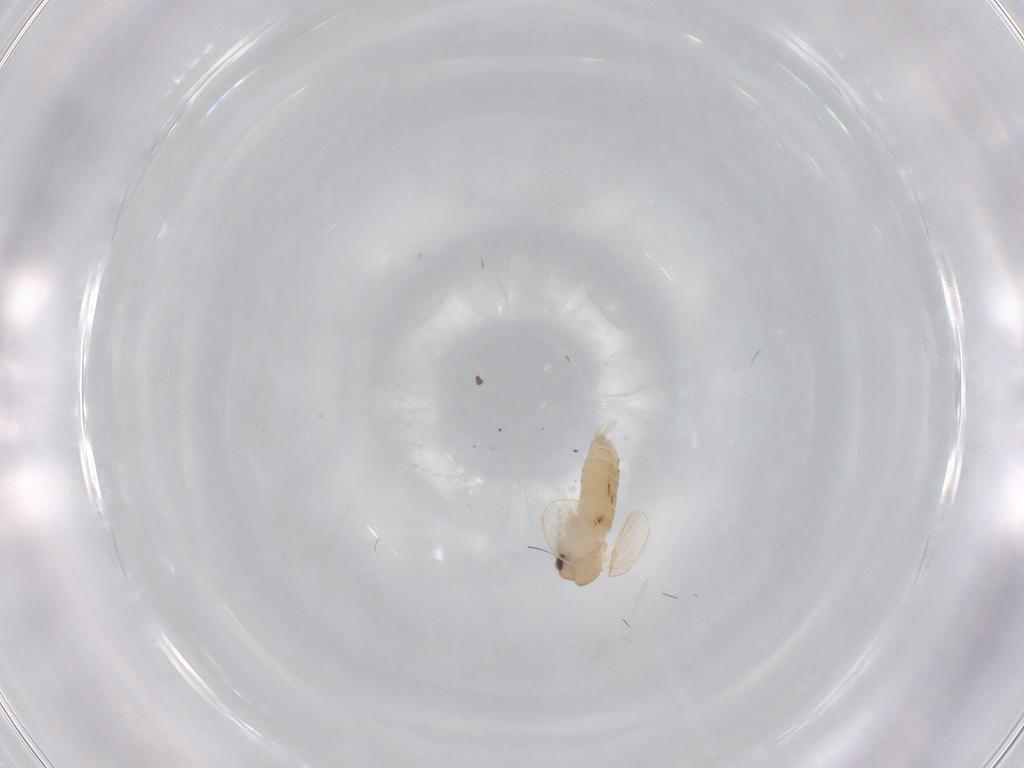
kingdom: Animalia
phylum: Arthropoda
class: Insecta
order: Diptera
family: Psychodidae
